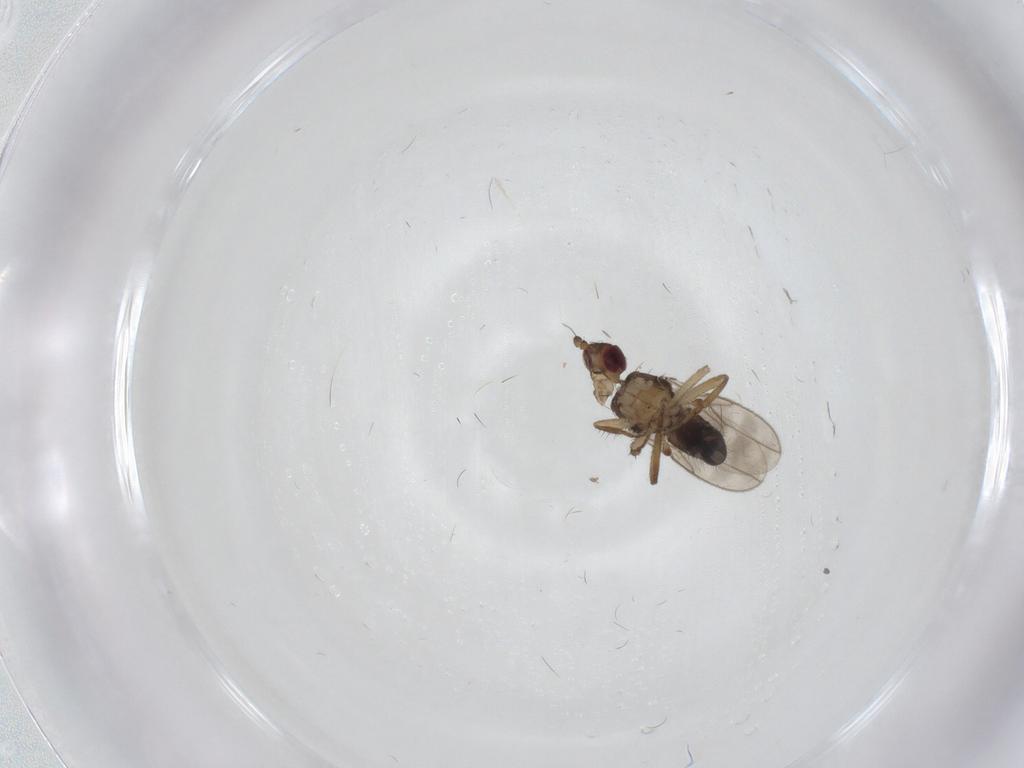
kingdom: Animalia
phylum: Arthropoda
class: Insecta
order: Diptera
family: Sphaeroceridae
